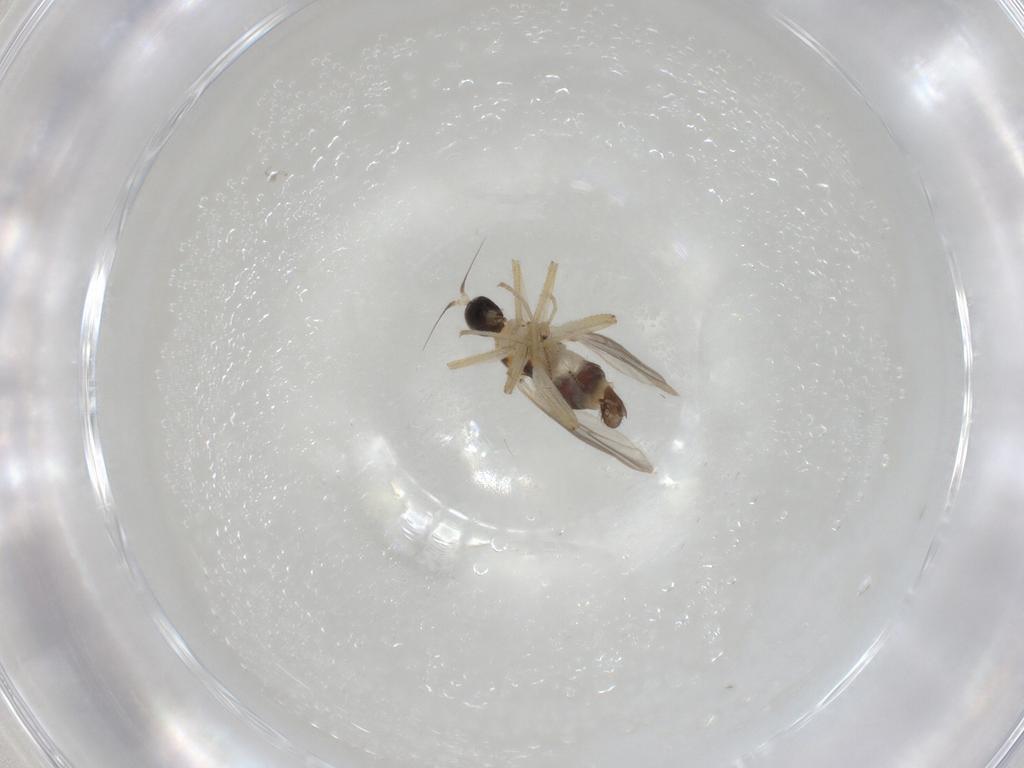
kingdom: Animalia
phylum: Arthropoda
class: Insecta
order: Diptera
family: Hybotidae
